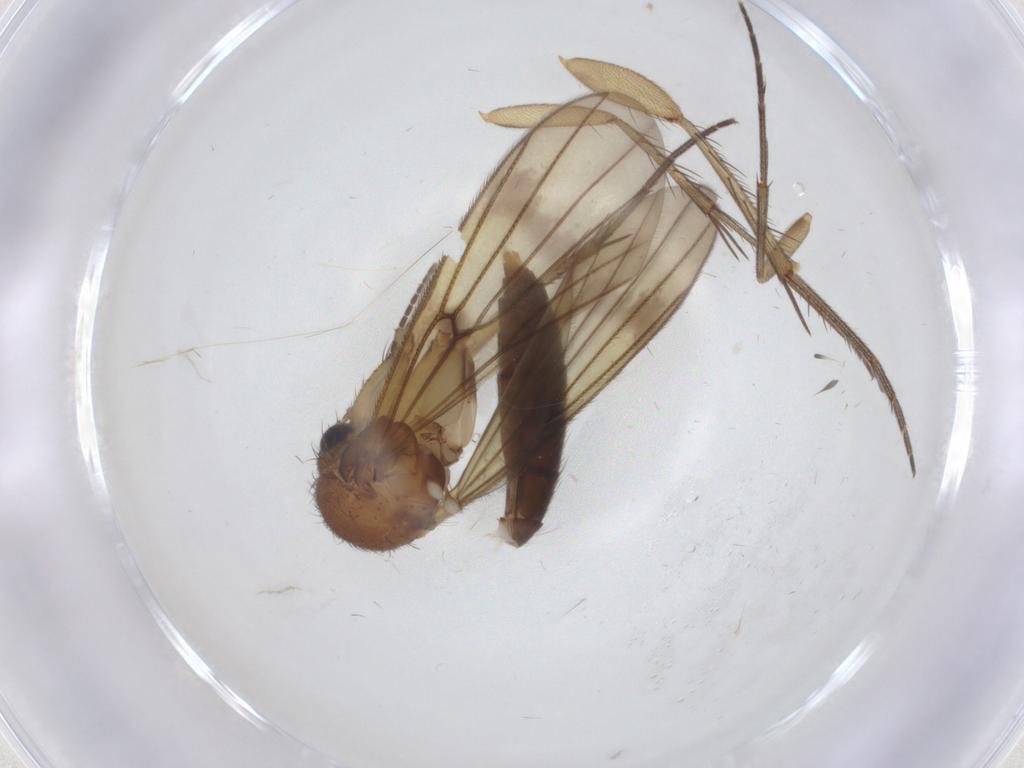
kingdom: Animalia
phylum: Arthropoda
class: Insecta
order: Diptera
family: Mycetophilidae
